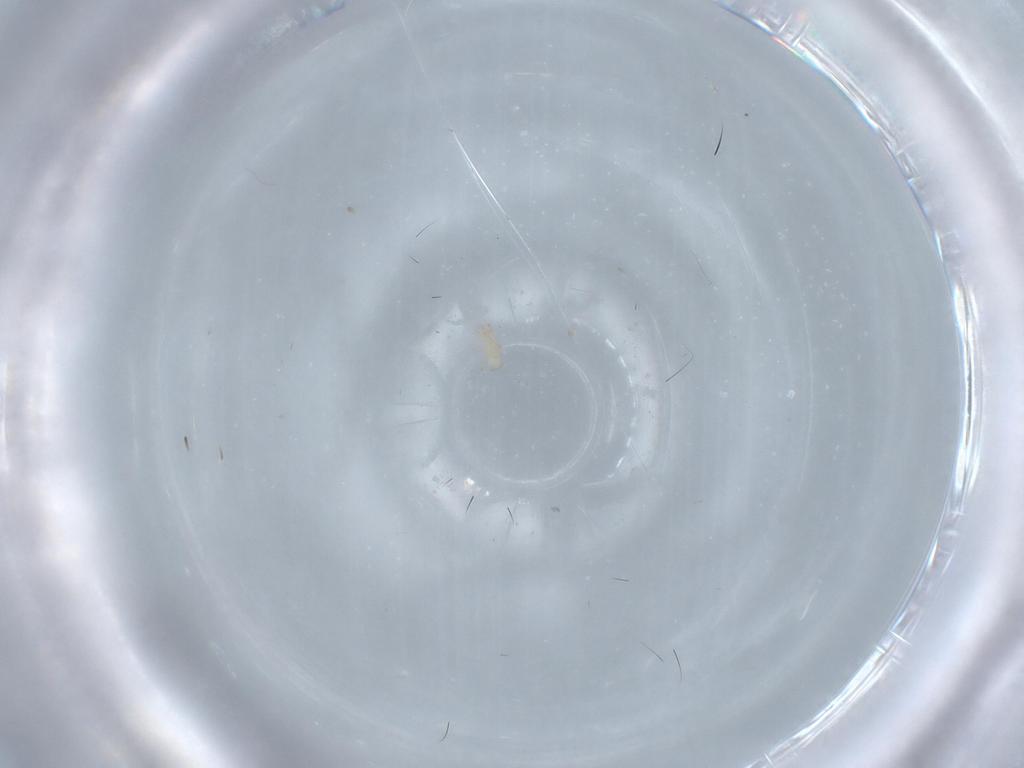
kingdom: Animalia
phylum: Arthropoda
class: Arachnida
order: Mesostigmata
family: Digamasellidae
